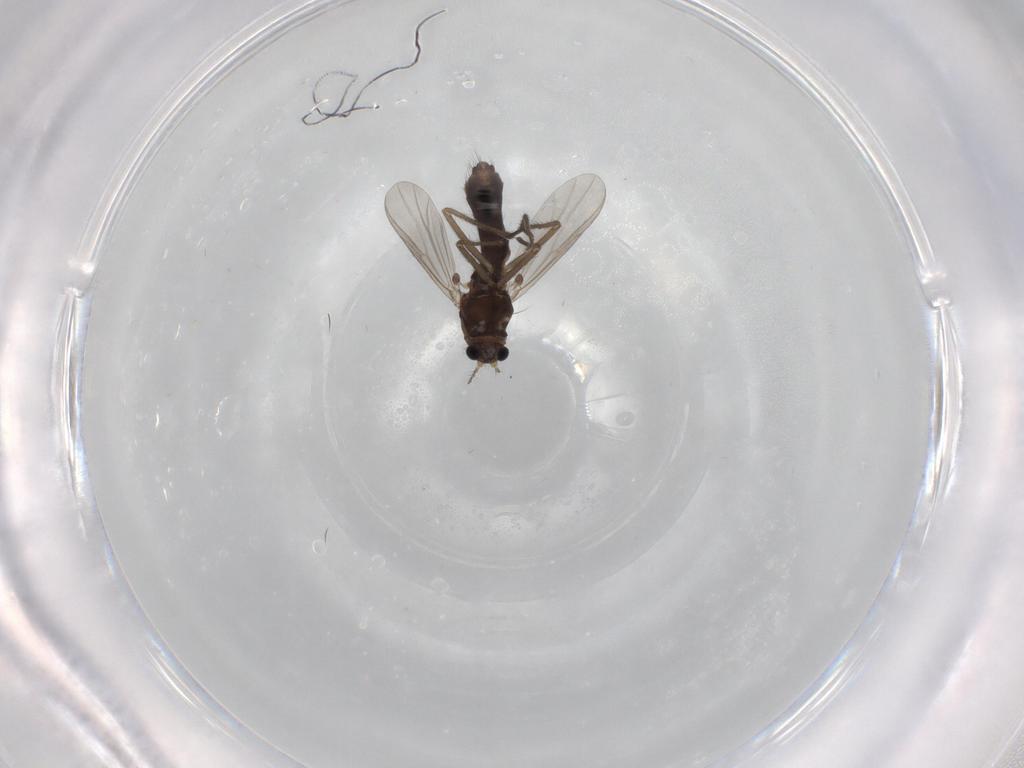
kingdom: Animalia
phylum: Arthropoda
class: Insecta
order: Diptera
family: Chironomidae
